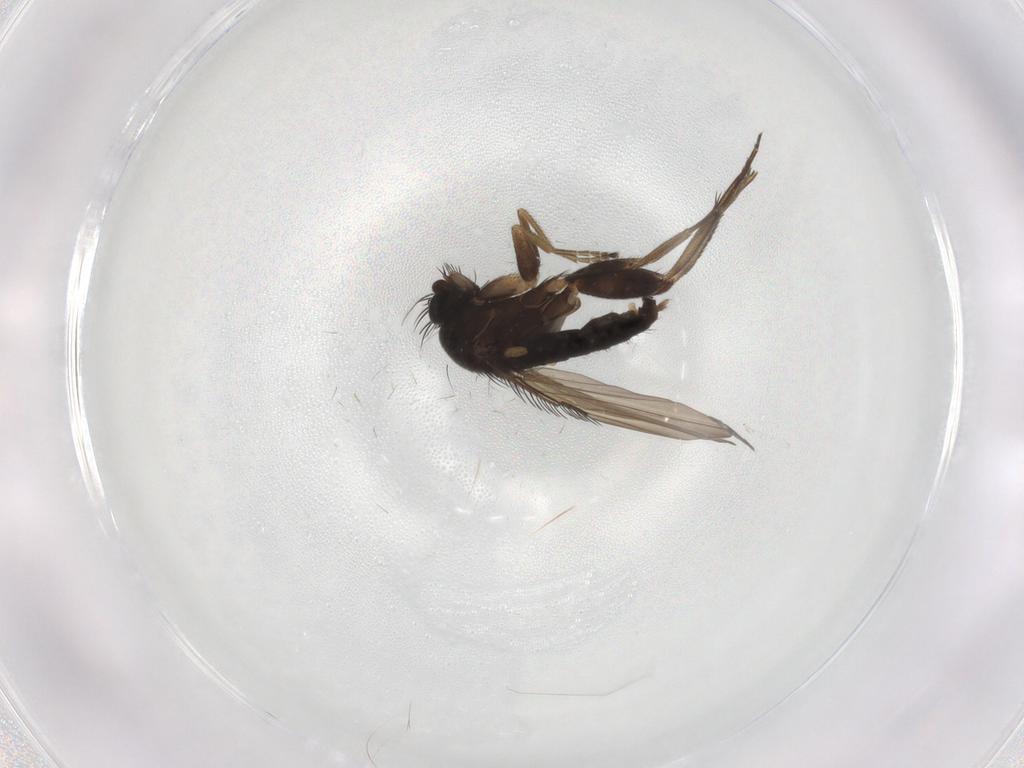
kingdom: Animalia
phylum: Arthropoda
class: Insecta
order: Diptera
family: Phoridae
